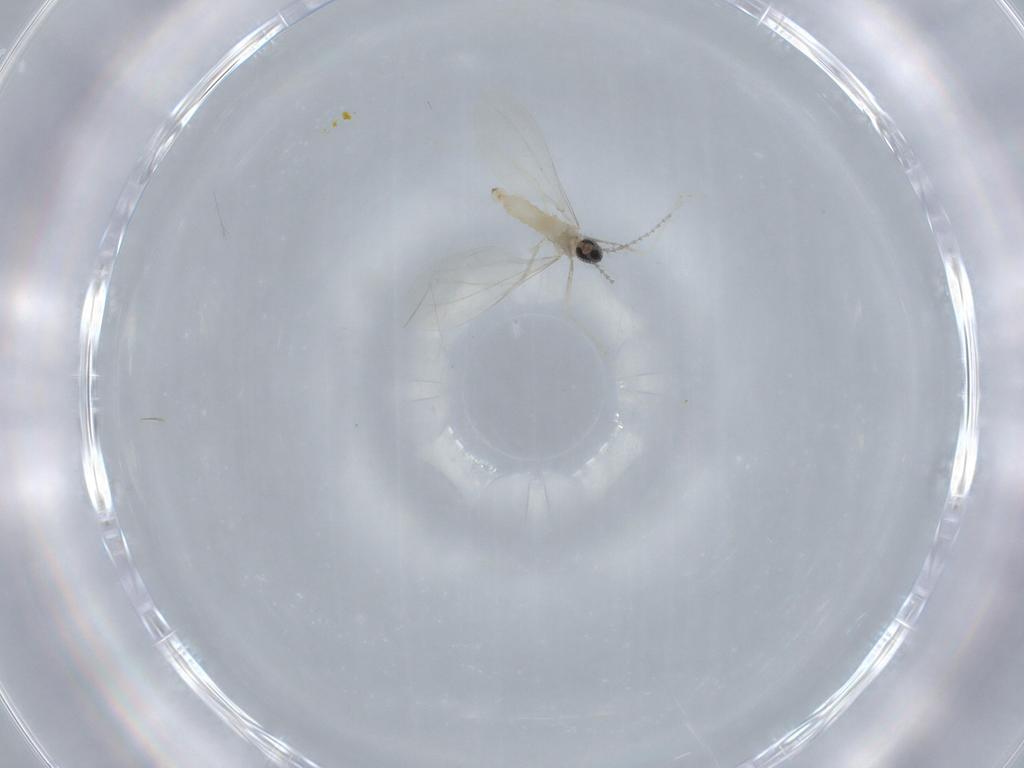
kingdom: Animalia
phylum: Arthropoda
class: Insecta
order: Diptera
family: Cecidomyiidae
